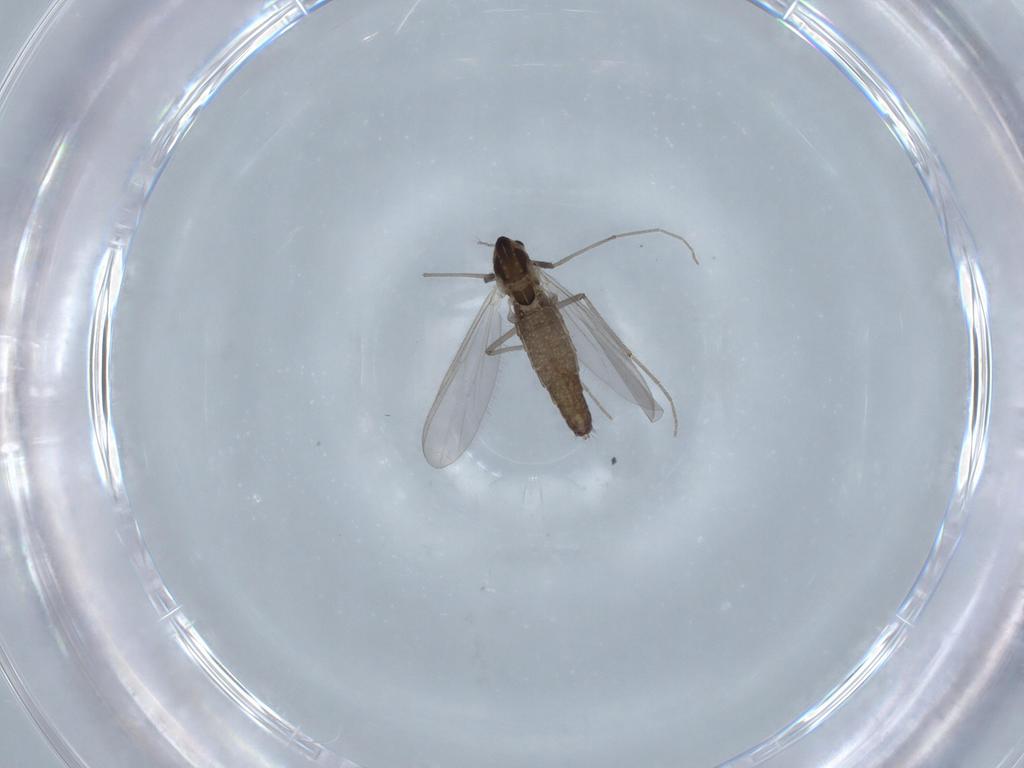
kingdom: Animalia
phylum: Arthropoda
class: Insecta
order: Diptera
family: Chironomidae
